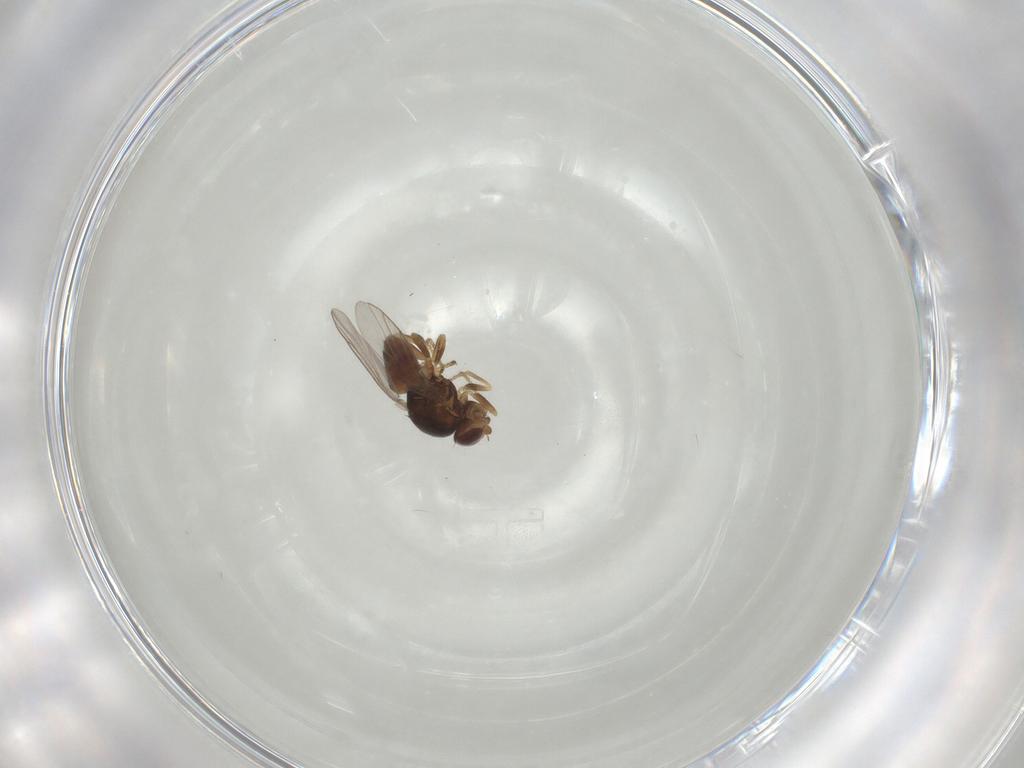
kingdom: Animalia
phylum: Arthropoda
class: Insecta
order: Diptera
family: Chloropidae
